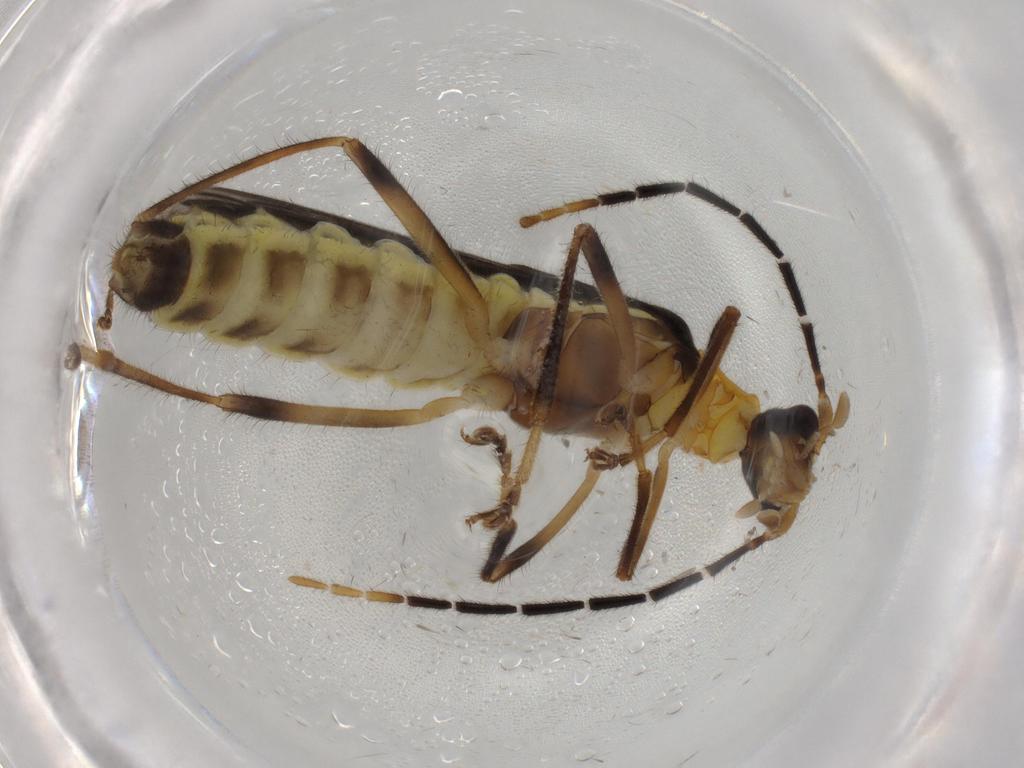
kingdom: Animalia
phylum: Arthropoda
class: Insecta
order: Coleoptera
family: Cantharidae
